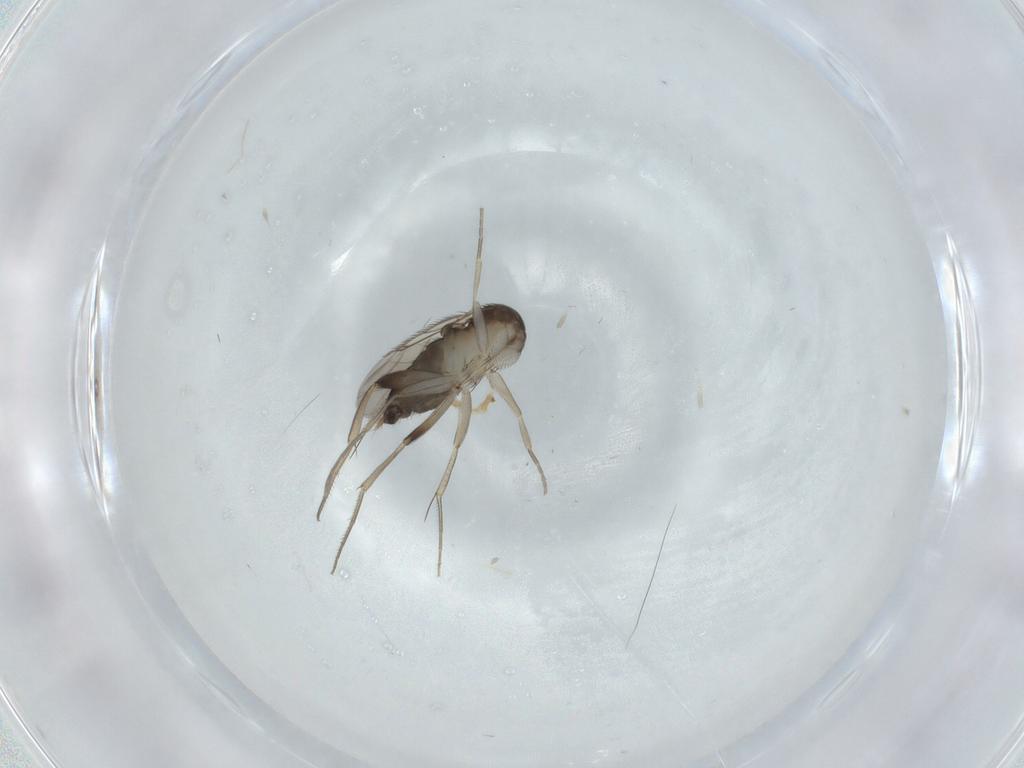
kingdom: Animalia
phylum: Arthropoda
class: Insecta
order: Diptera
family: Phoridae
